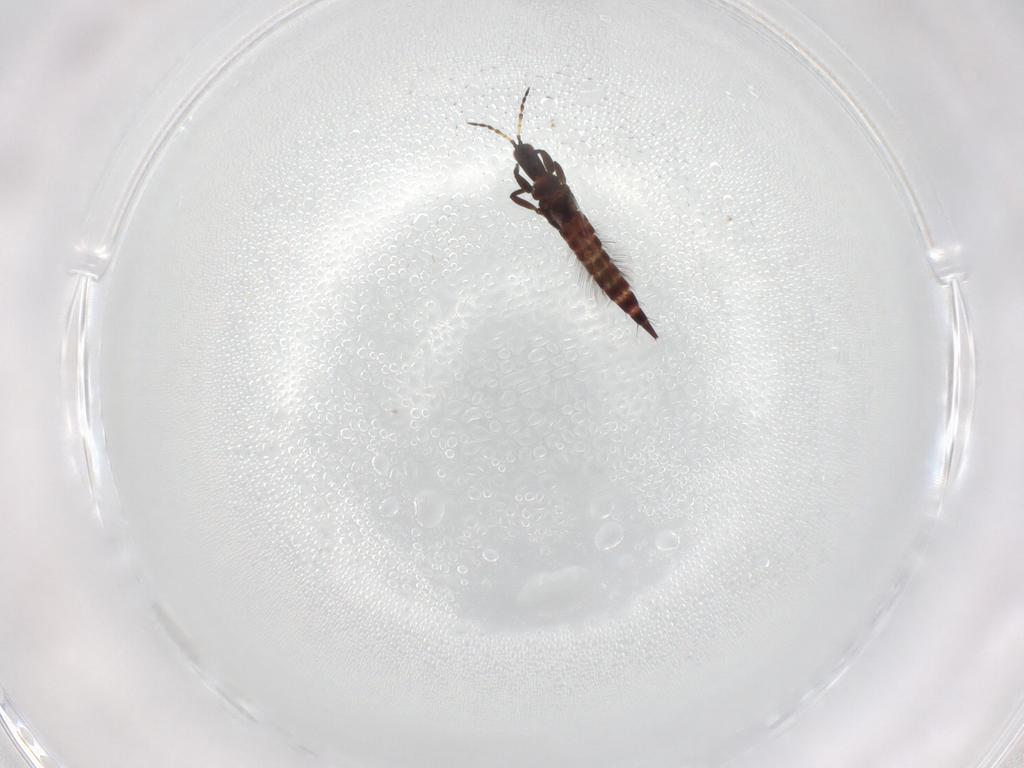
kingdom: Animalia
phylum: Arthropoda
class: Insecta
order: Thysanoptera
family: Phlaeothripidae
